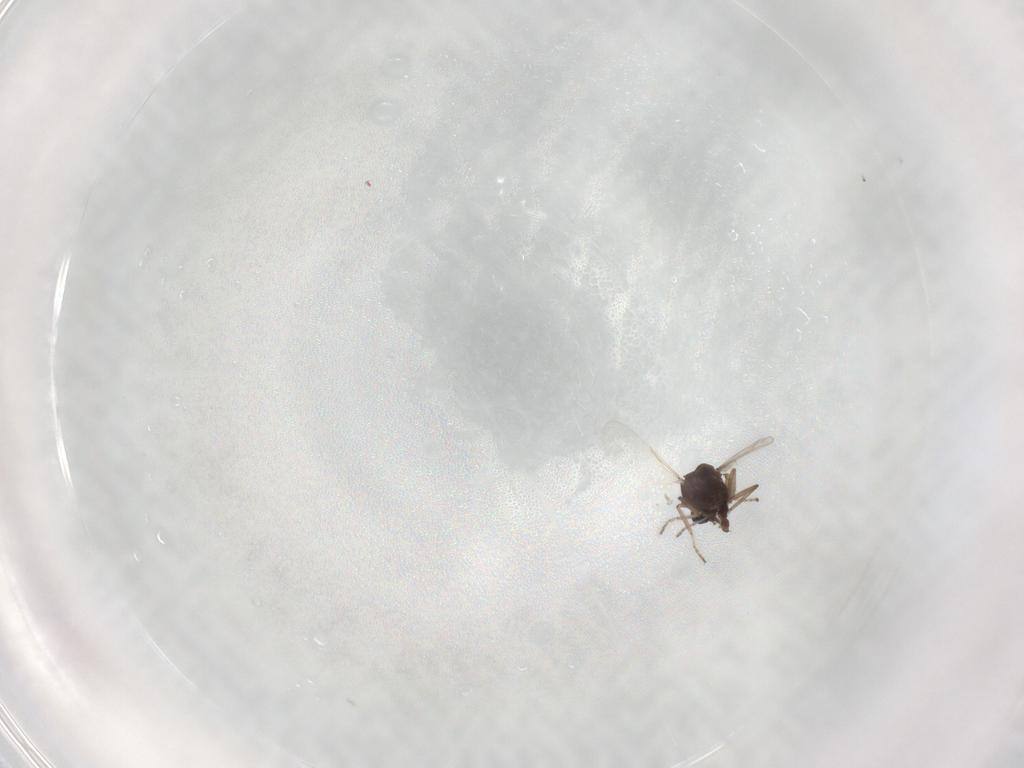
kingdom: Animalia
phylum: Arthropoda
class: Insecta
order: Diptera
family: Ceratopogonidae
